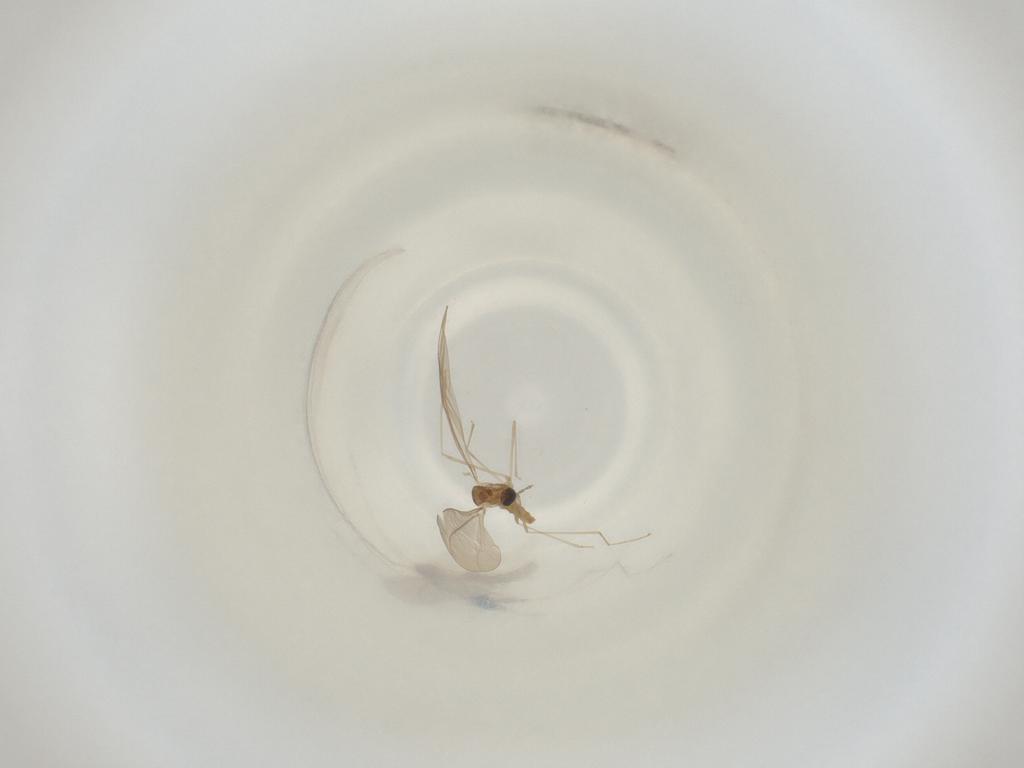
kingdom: Animalia
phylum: Arthropoda
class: Insecta
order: Diptera
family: Cecidomyiidae
